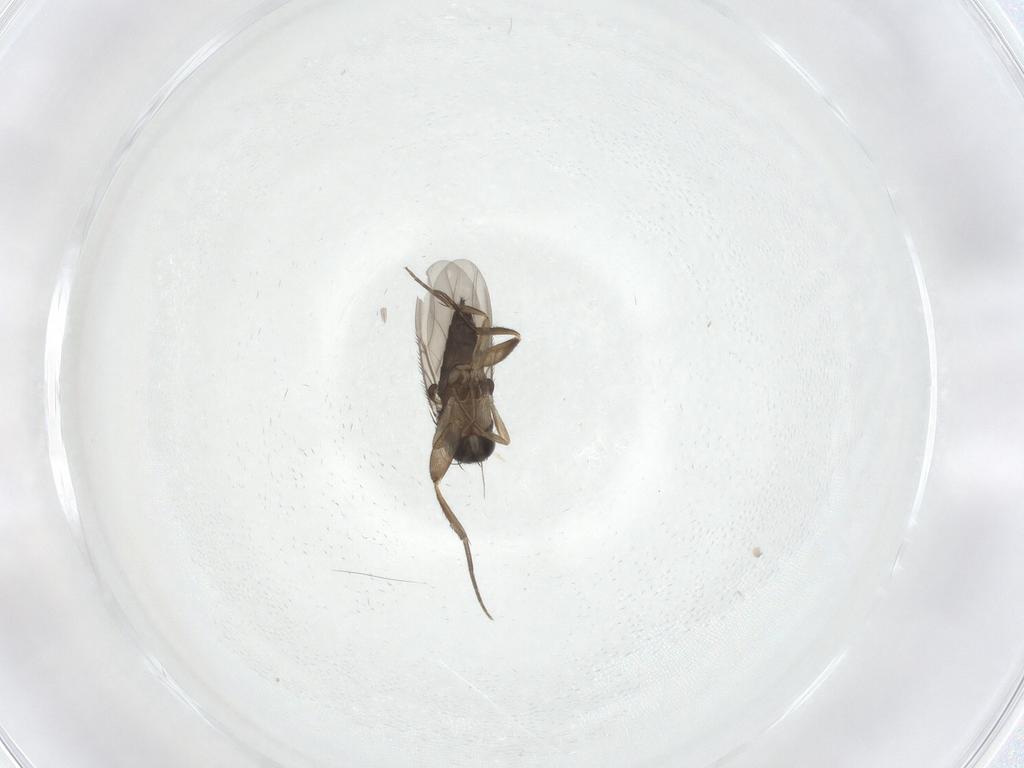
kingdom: Animalia
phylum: Arthropoda
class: Insecta
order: Diptera
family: Phoridae
